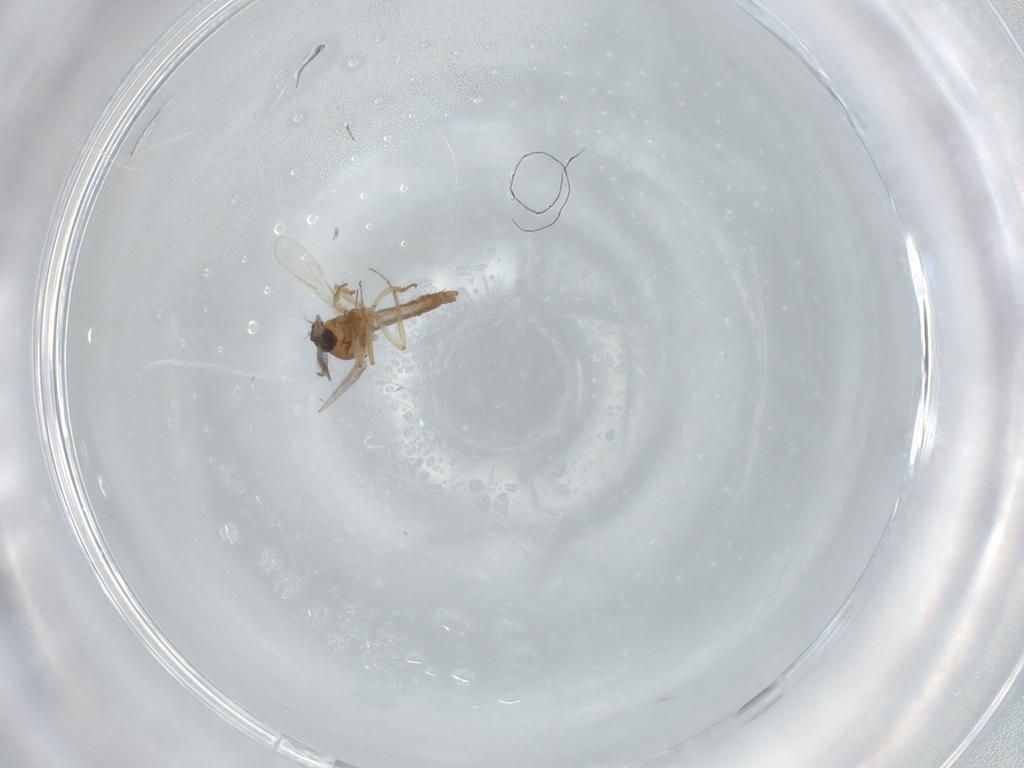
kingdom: Animalia
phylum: Arthropoda
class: Insecta
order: Diptera
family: Ceratopogonidae
